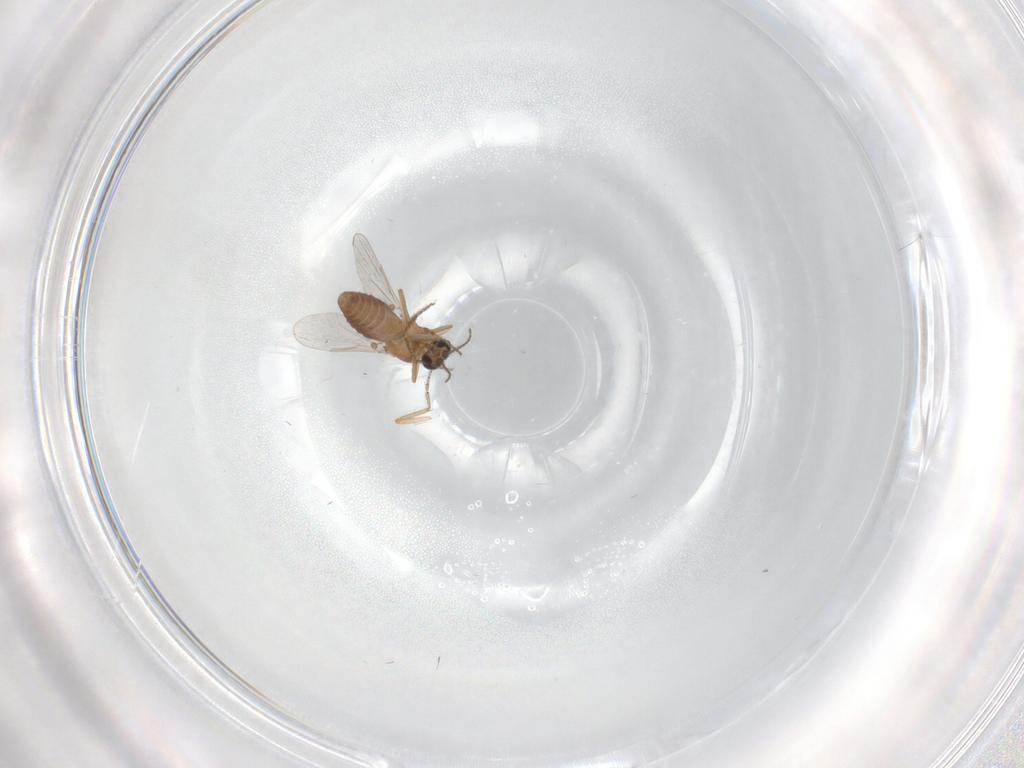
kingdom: Animalia
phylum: Arthropoda
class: Insecta
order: Diptera
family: Ceratopogonidae
